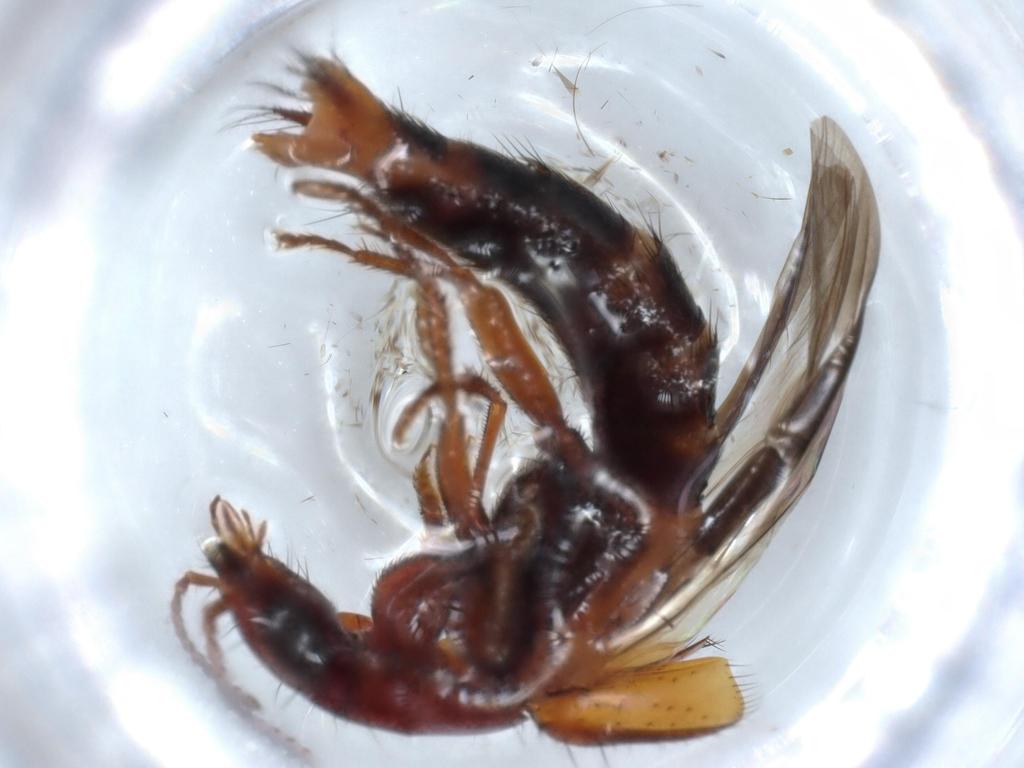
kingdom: Animalia
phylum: Arthropoda
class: Insecta
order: Coleoptera
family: Staphylinidae
